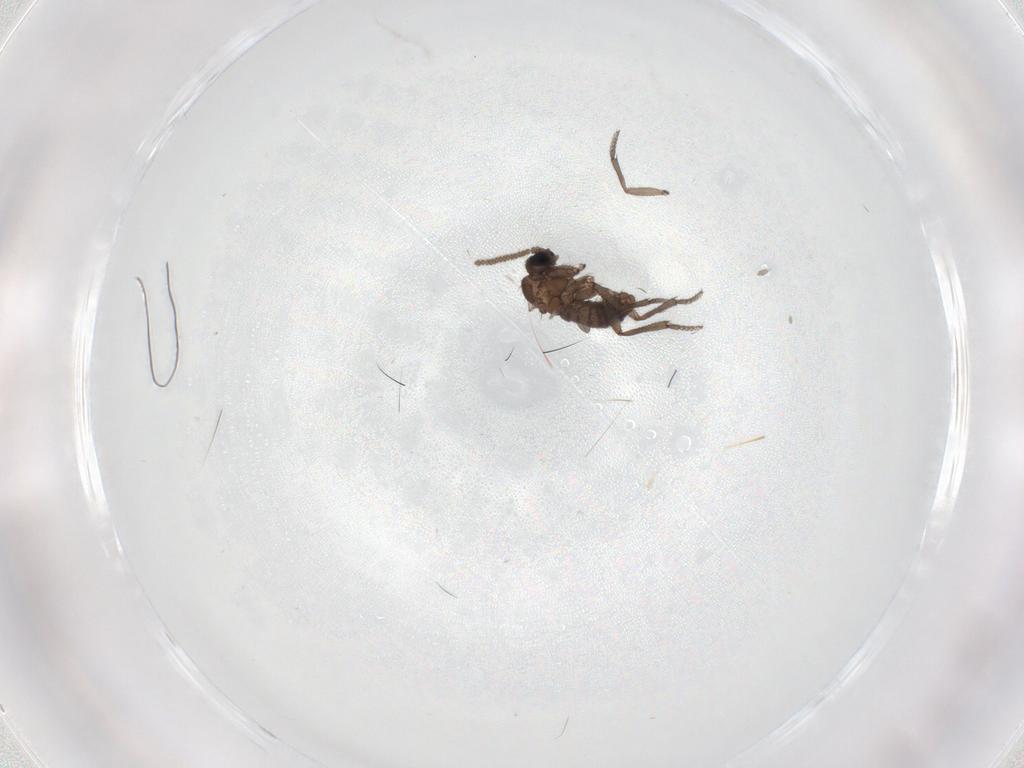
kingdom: Animalia
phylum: Arthropoda
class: Insecta
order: Diptera
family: Sciaridae
